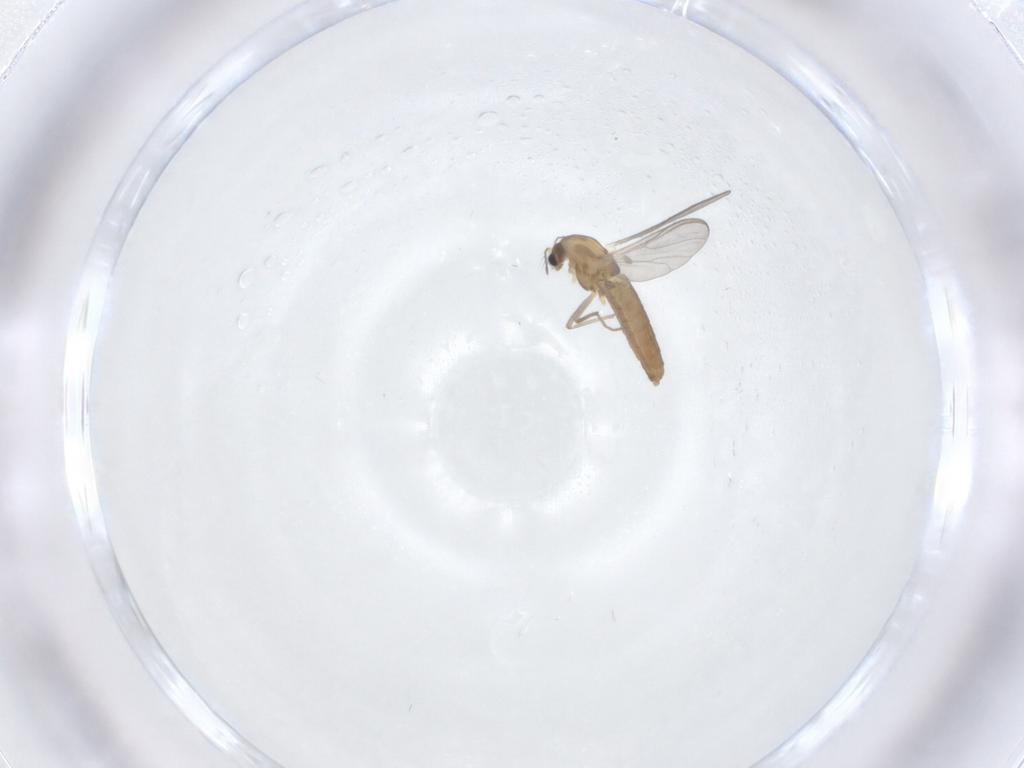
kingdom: Animalia
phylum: Arthropoda
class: Insecta
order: Diptera
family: Chironomidae
